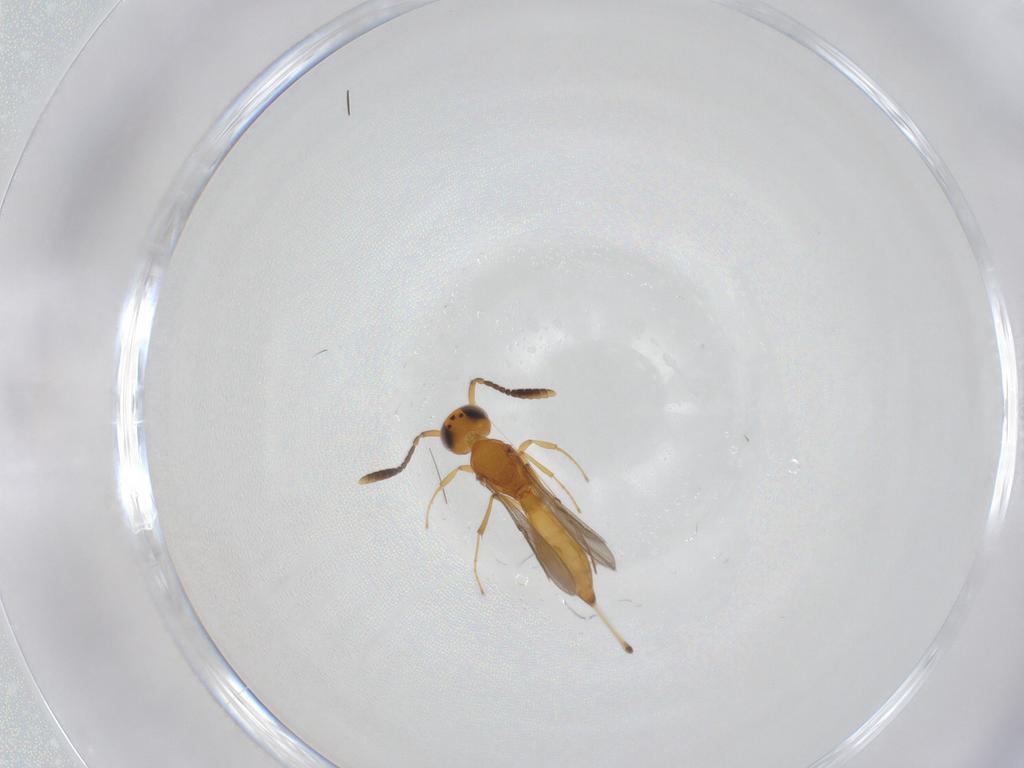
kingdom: Animalia
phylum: Arthropoda
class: Insecta
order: Hymenoptera
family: Scelionidae
